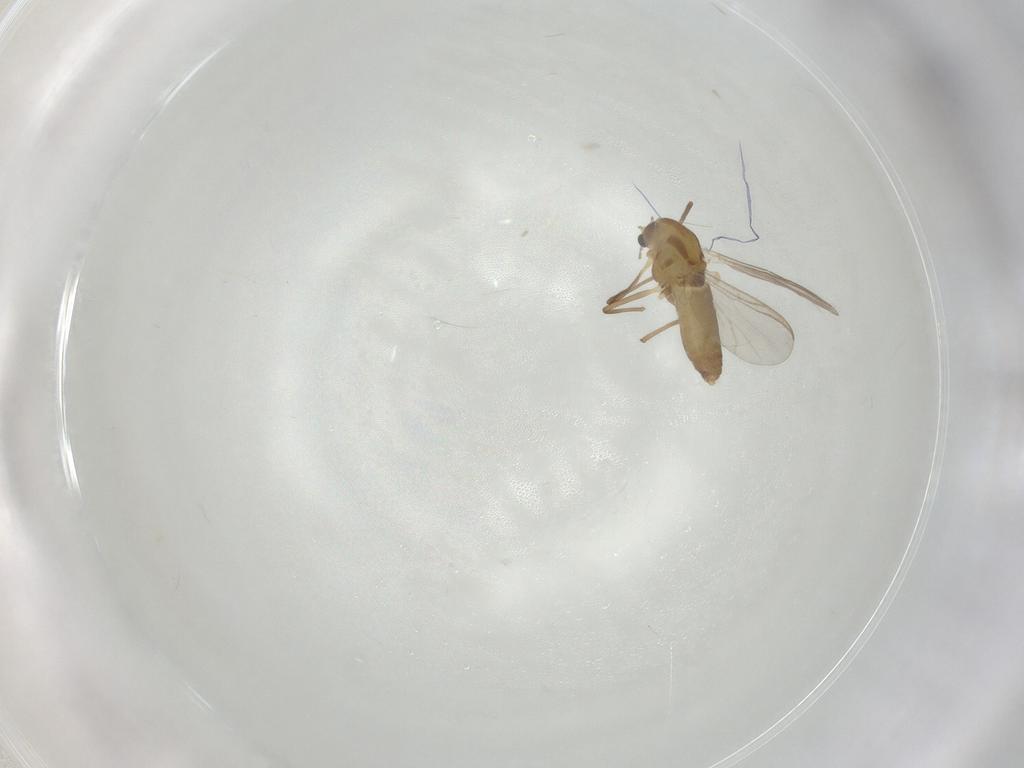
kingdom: Animalia
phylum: Arthropoda
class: Insecta
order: Diptera
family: Chironomidae
